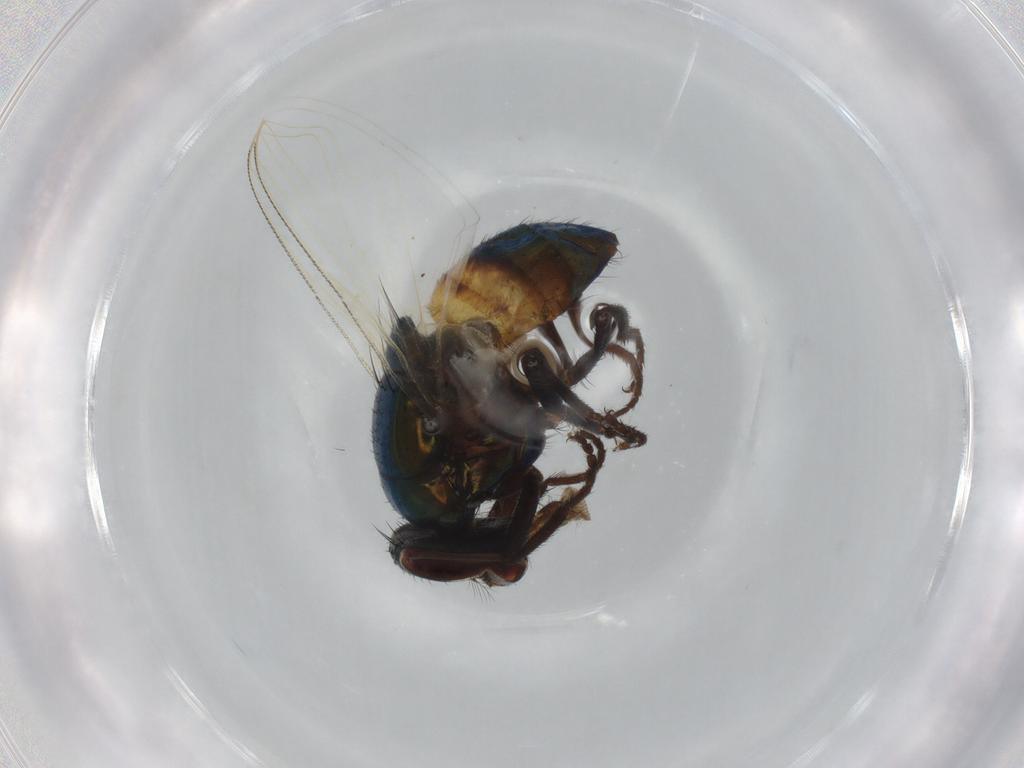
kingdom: Animalia
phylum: Arthropoda
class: Insecta
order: Diptera
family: Muscidae
